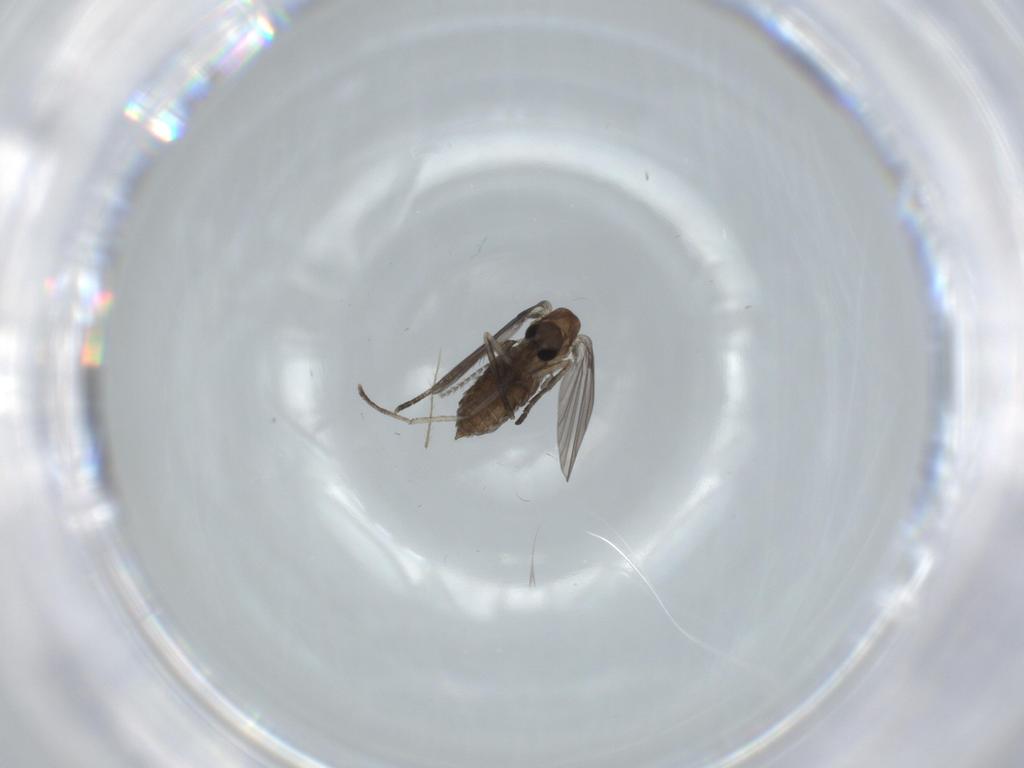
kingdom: Animalia
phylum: Arthropoda
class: Insecta
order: Diptera
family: Psychodidae
